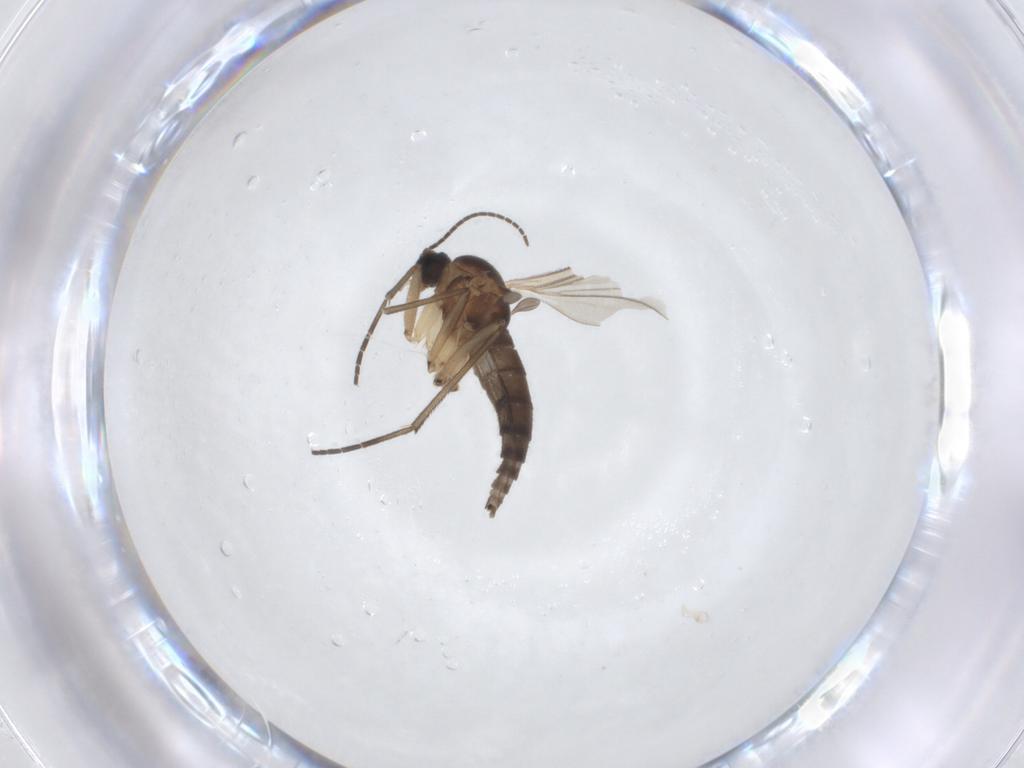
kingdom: Animalia
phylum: Arthropoda
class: Insecta
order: Diptera
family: Sciaridae
